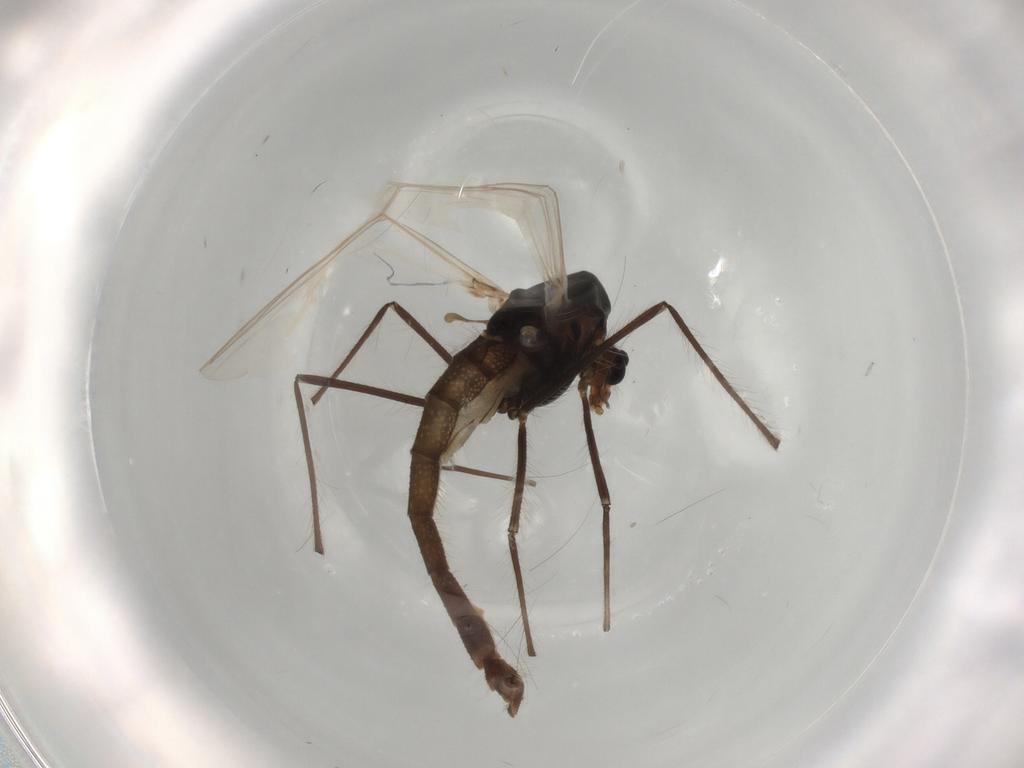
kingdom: Animalia
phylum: Arthropoda
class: Insecta
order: Diptera
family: Chironomidae
